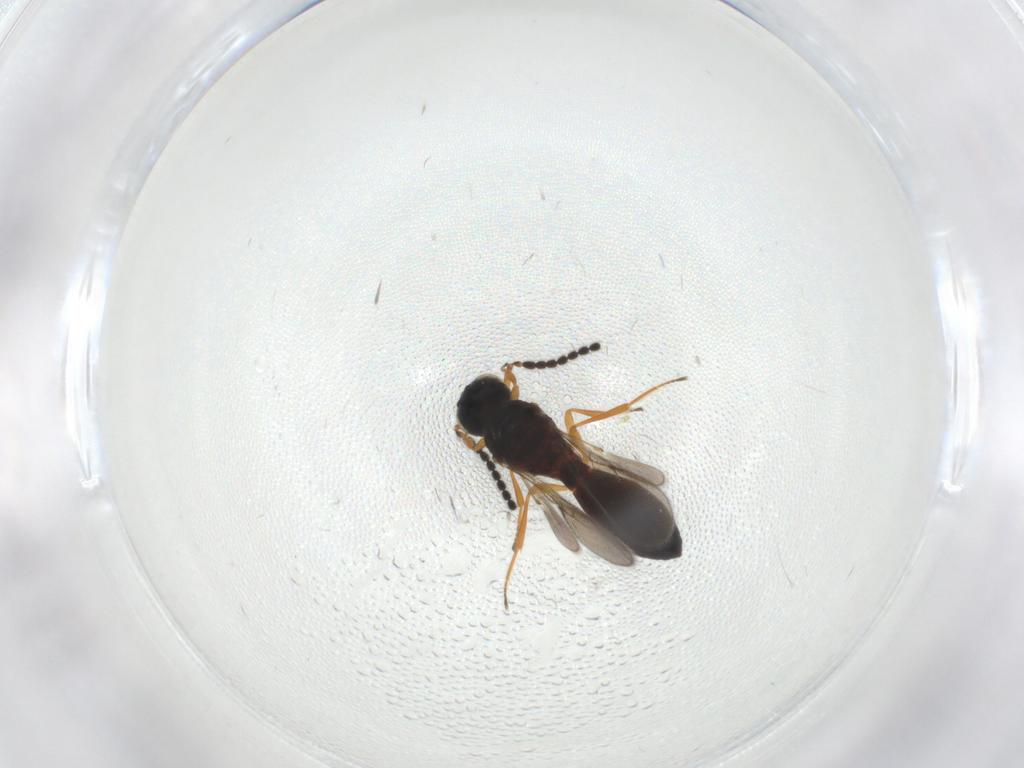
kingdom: Animalia
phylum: Arthropoda
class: Insecta
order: Hymenoptera
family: Scelionidae
